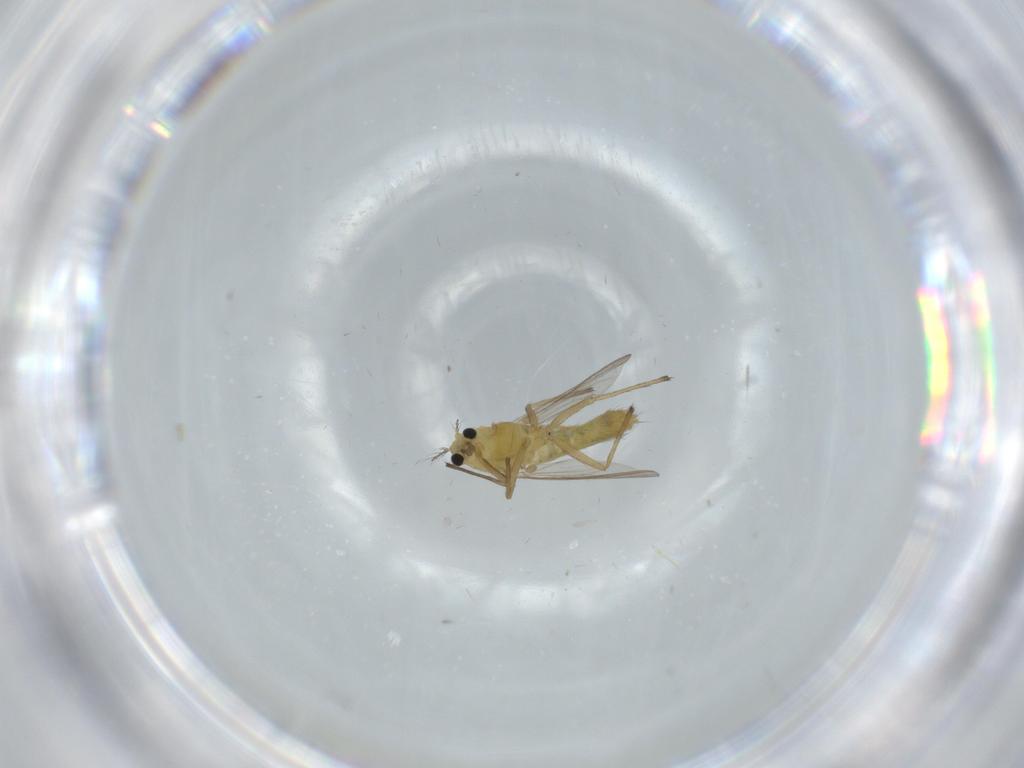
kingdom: Animalia
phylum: Arthropoda
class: Insecta
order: Diptera
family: Chironomidae
